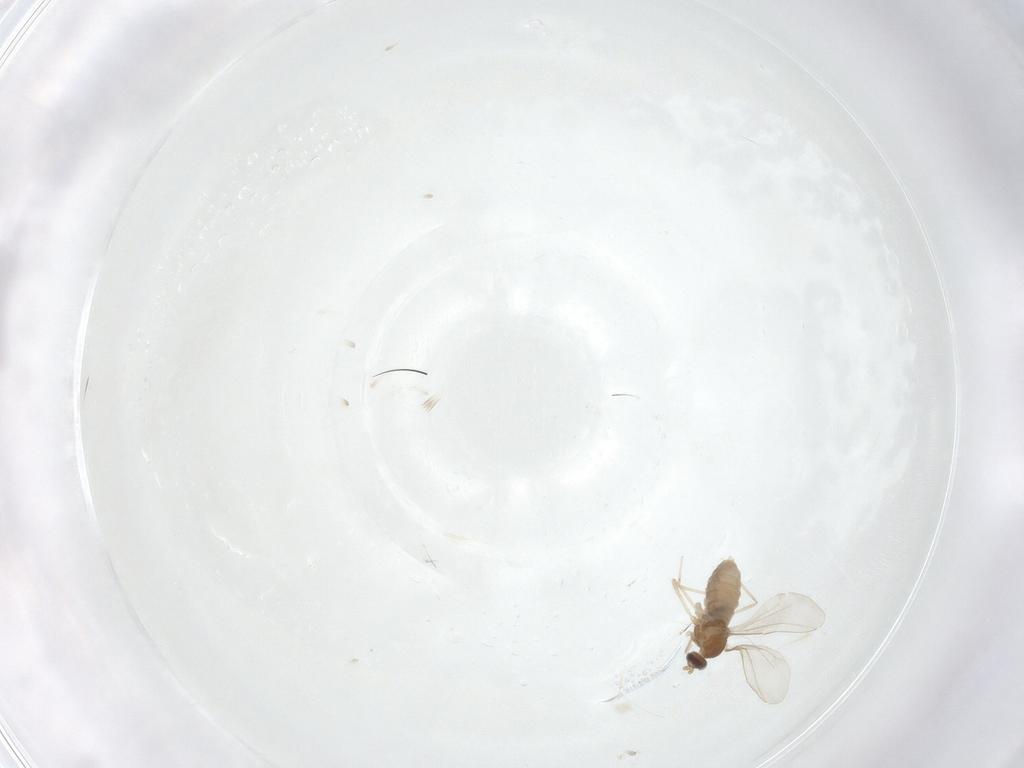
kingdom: Animalia
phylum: Arthropoda
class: Insecta
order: Diptera
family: Cecidomyiidae
